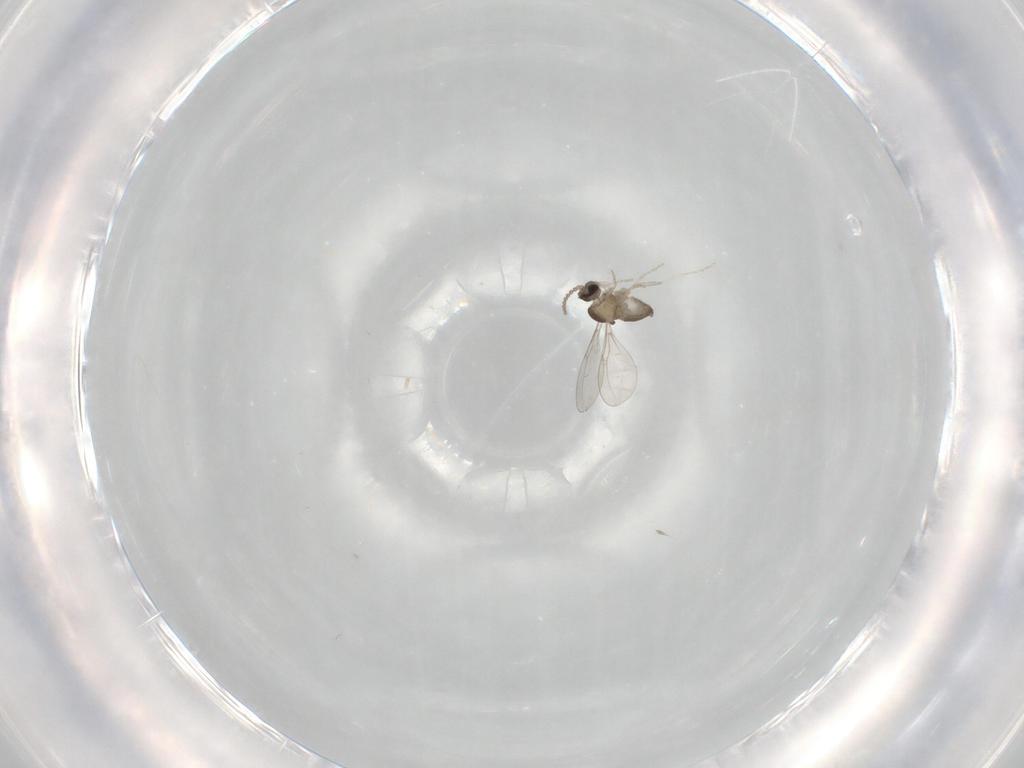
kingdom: Animalia
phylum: Arthropoda
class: Insecta
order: Diptera
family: Cecidomyiidae
